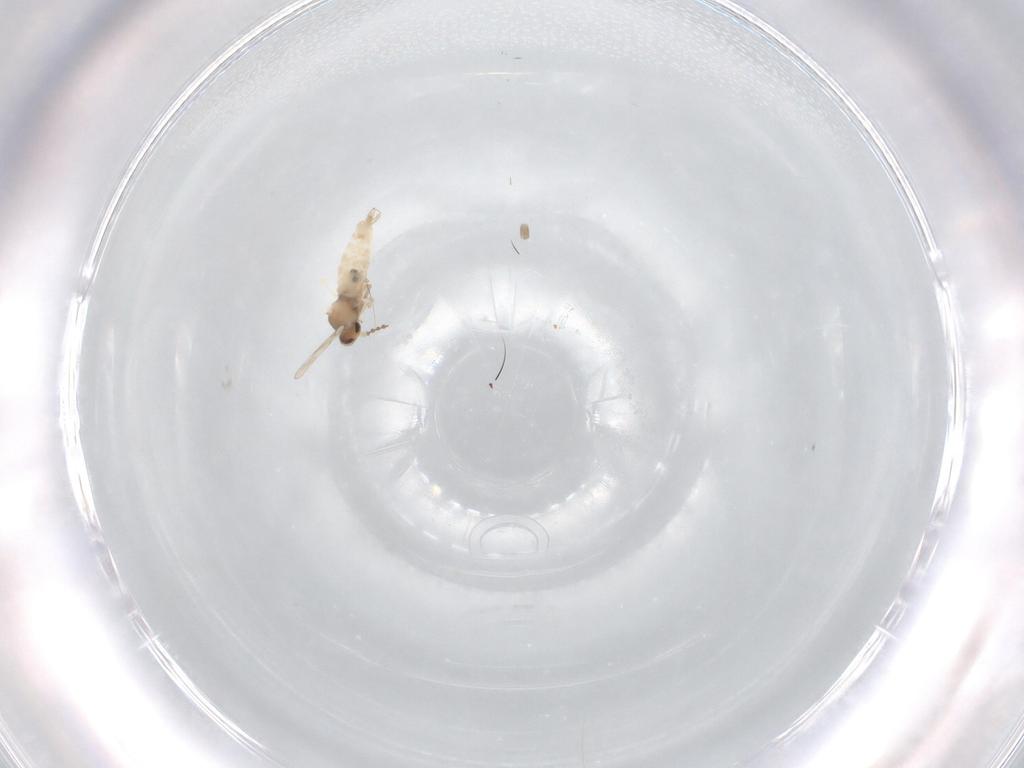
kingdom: Animalia
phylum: Arthropoda
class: Insecta
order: Diptera
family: Cecidomyiidae
